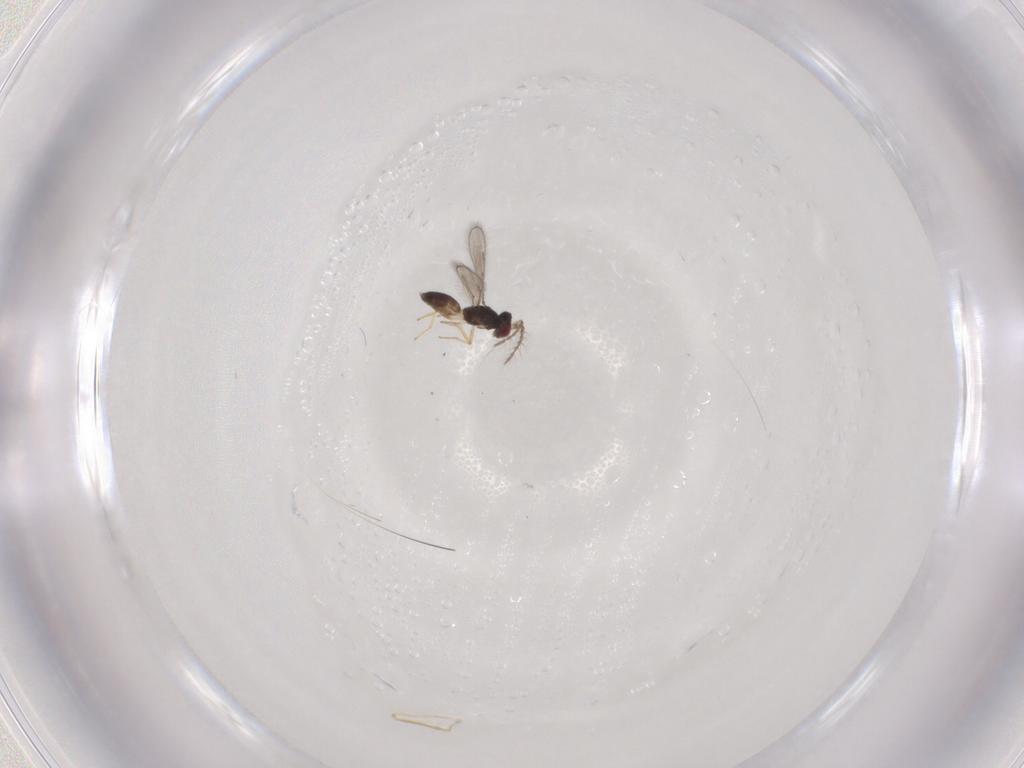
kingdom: Animalia
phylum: Arthropoda
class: Insecta
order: Hymenoptera
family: Eulophidae
